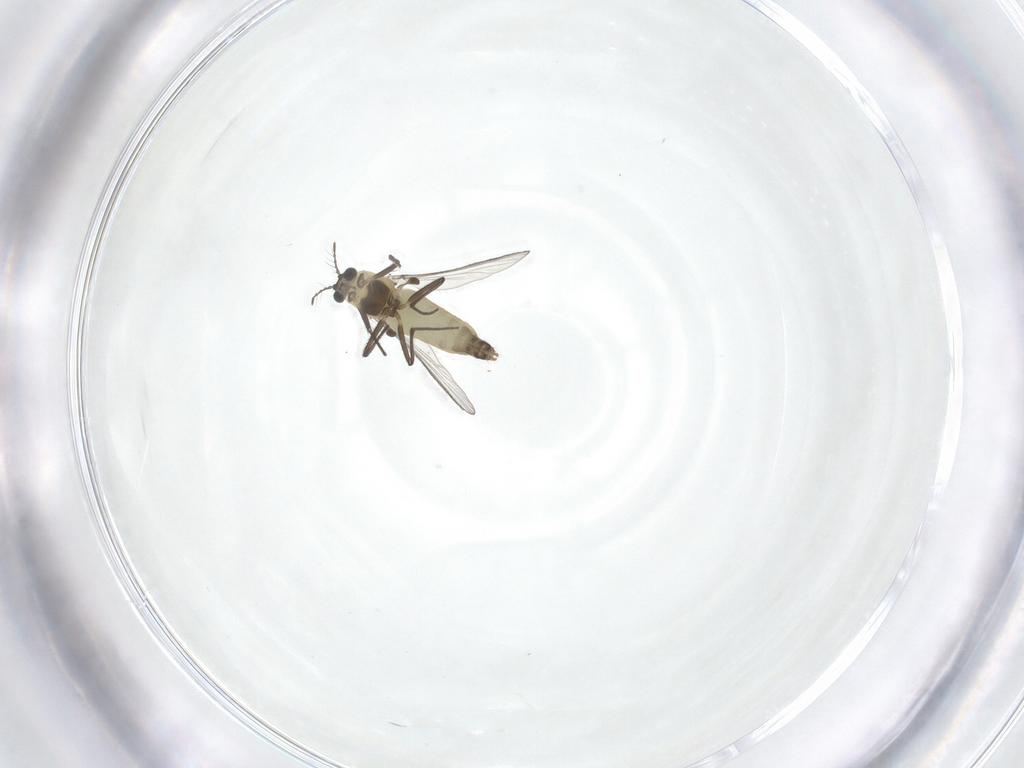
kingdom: Animalia
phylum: Arthropoda
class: Insecta
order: Diptera
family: Chironomidae
